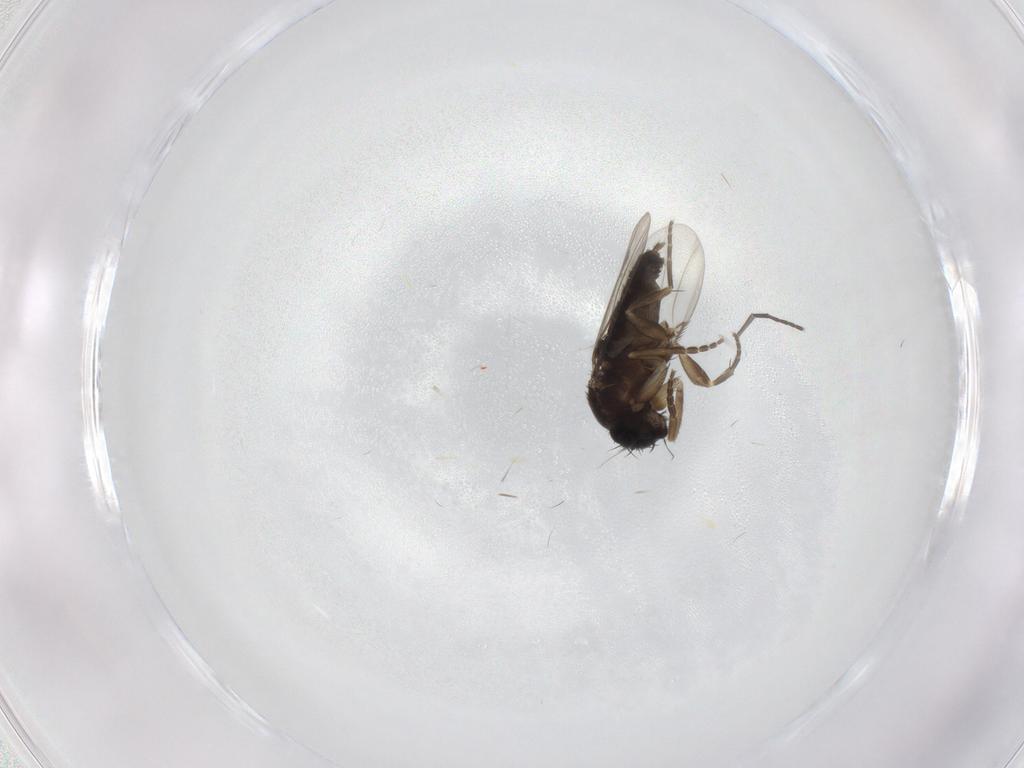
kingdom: Animalia
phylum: Arthropoda
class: Insecta
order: Diptera
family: Phoridae
